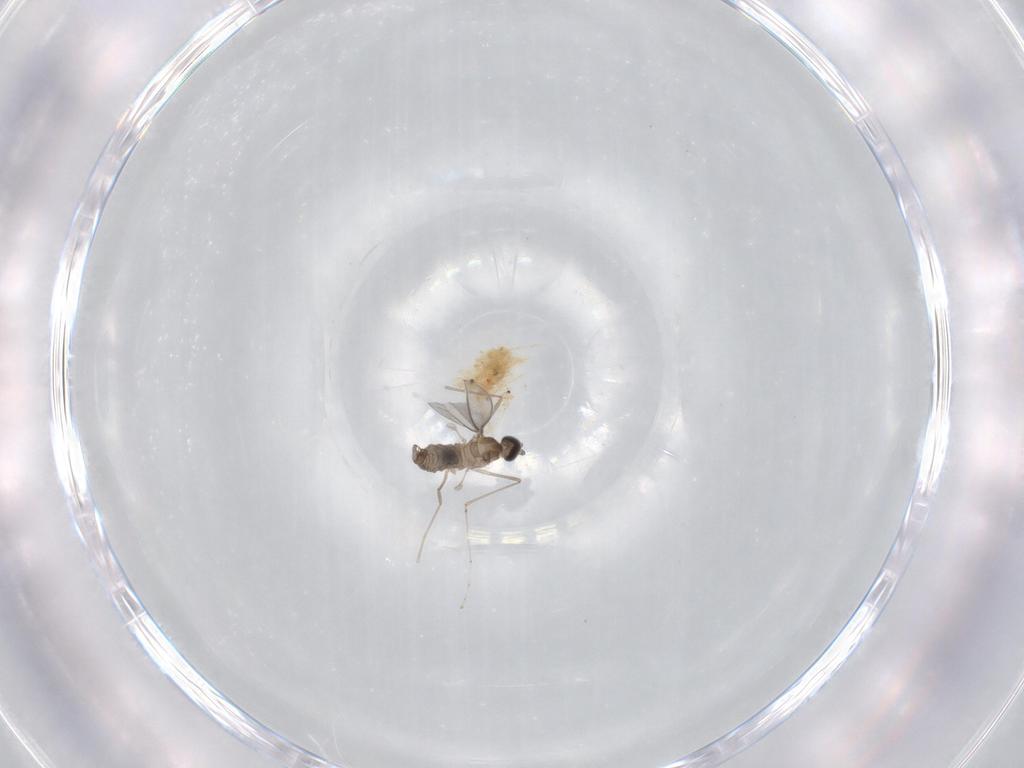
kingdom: Animalia
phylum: Arthropoda
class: Insecta
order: Diptera
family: Cecidomyiidae
